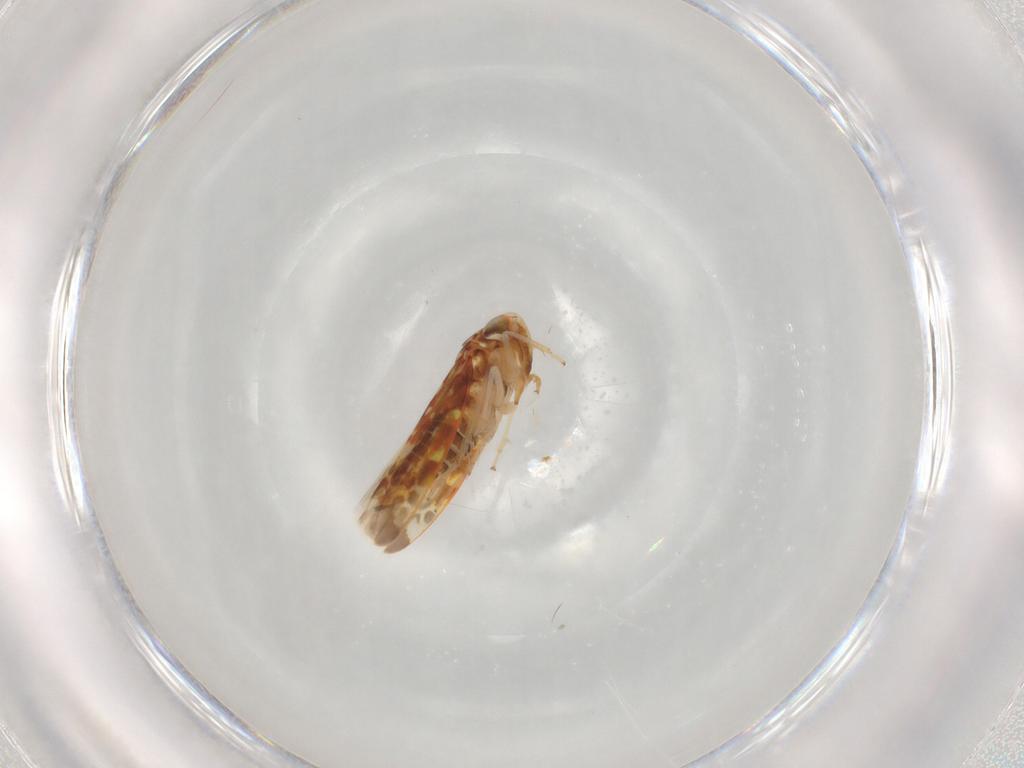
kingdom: Animalia
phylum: Arthropoda
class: Insecta
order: Hemiptera
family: Cicadellidae
